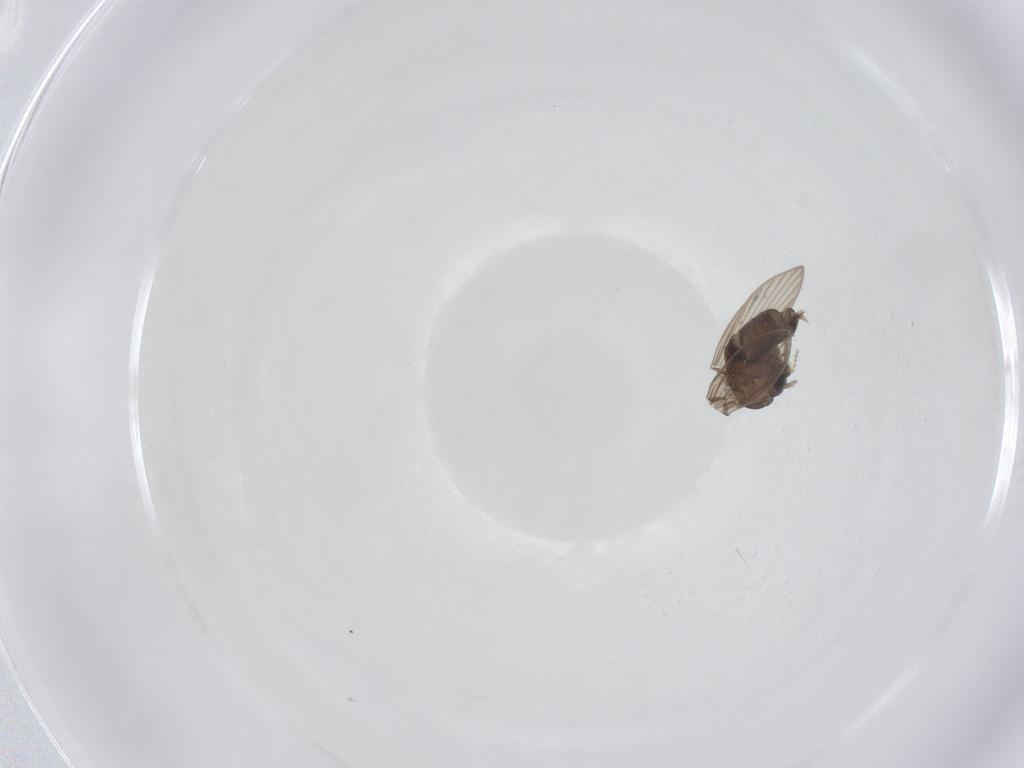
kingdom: Animalia
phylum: Arthropoda
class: Insecta
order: Diptera
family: Psychodidae
